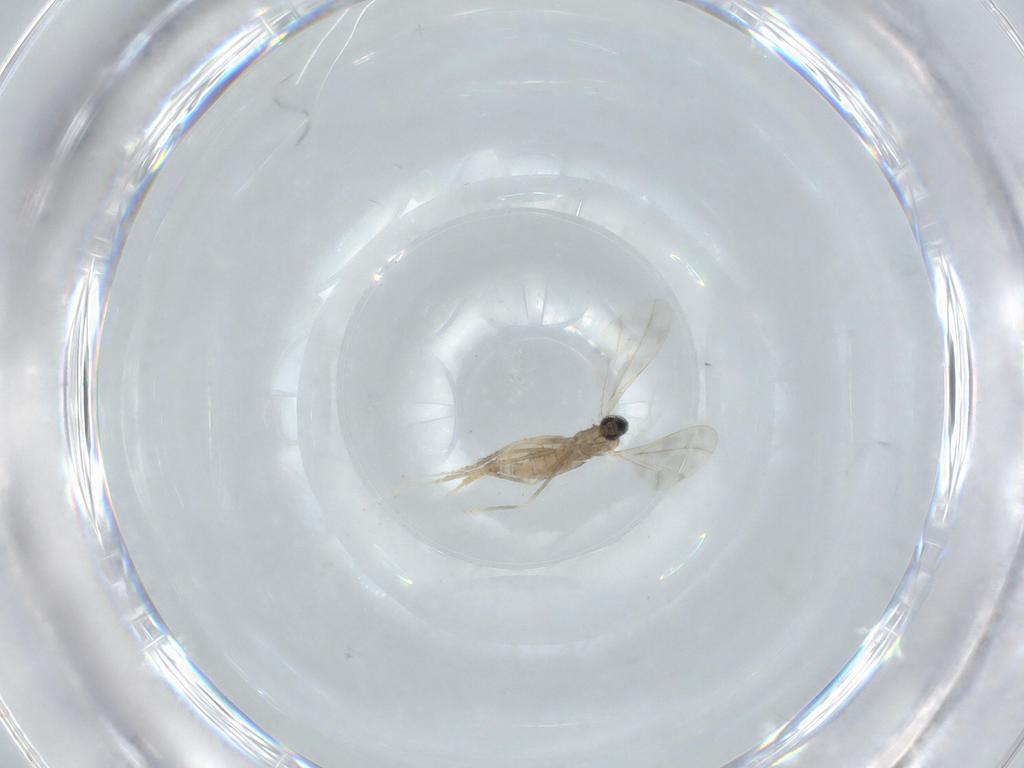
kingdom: Animalia
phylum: Arthropoda
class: Insecta
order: Diptera
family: Cecidomyiidae
